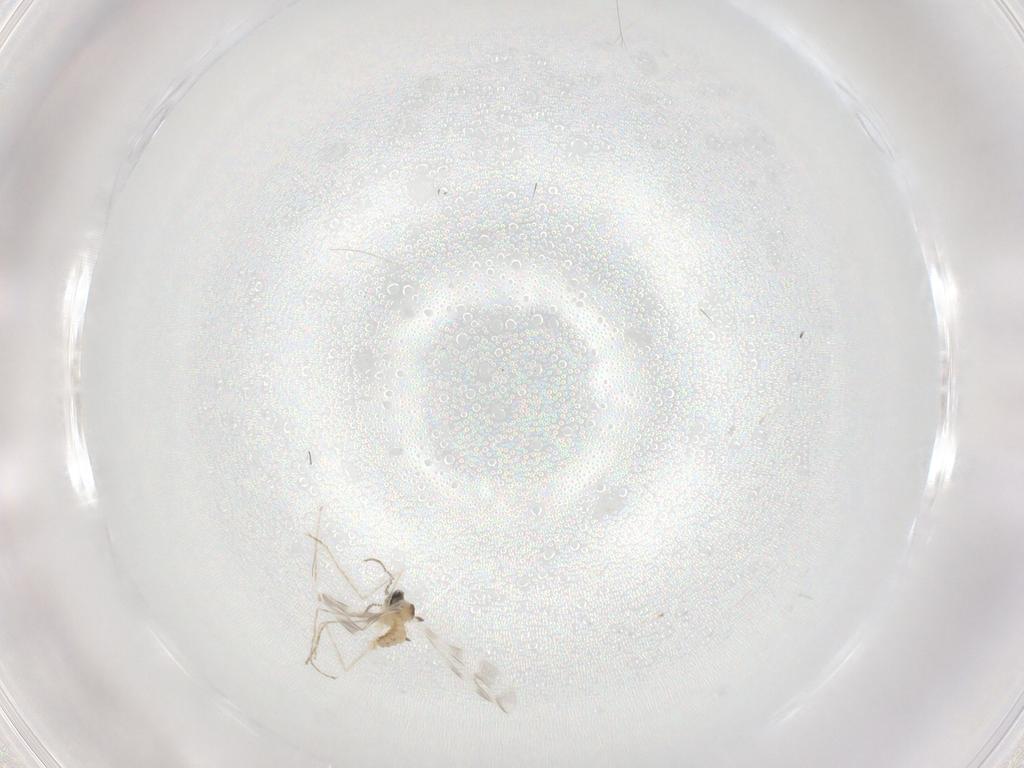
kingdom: Animalia
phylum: Arthropoda
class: Insecta
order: Diptera
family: Cecidomyiidae
